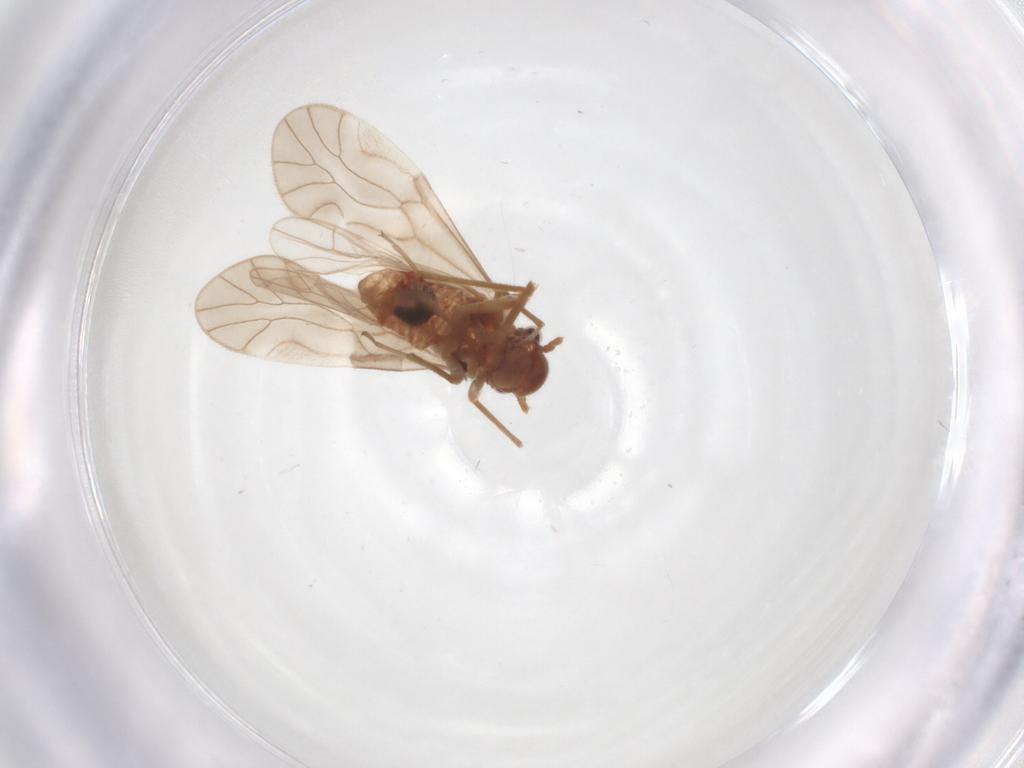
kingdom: Animalia
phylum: Arthropoda
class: Insecta
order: Hymenoptera
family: Ichneumonidae
